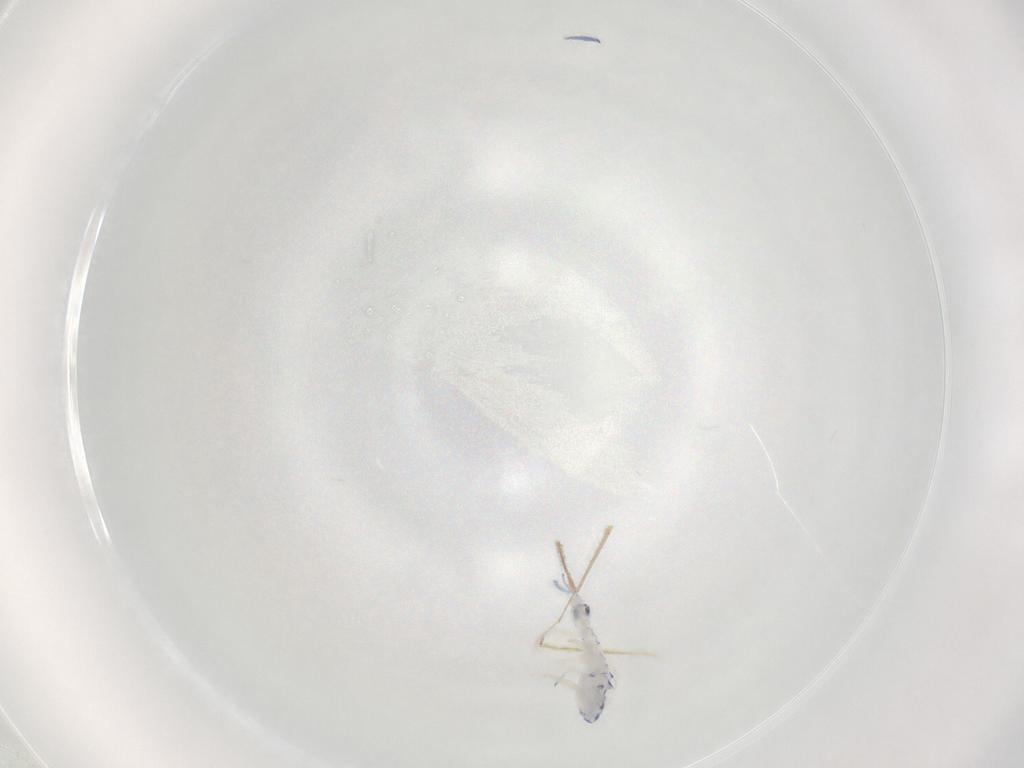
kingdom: Animalia
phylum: Arthropoda
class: Collembola
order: Entomobryomorpha
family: Entomobryidae
